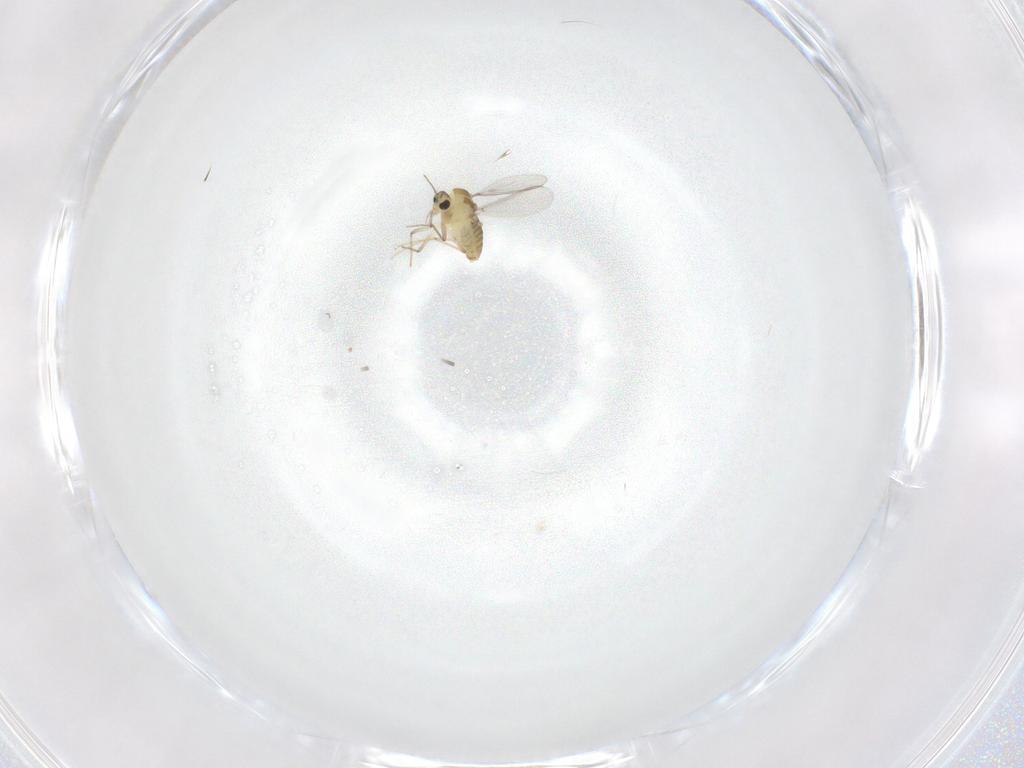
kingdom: Animalia
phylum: Arthropoda
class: Insecta
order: Diptera
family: Chironomidae
